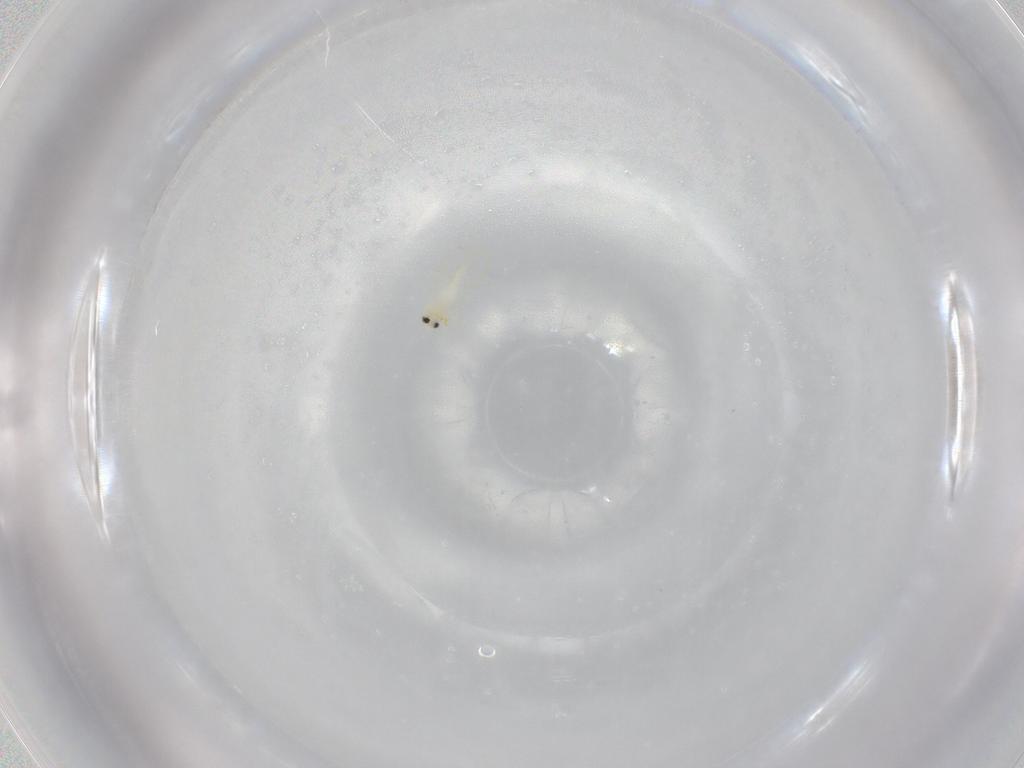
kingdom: Animalia
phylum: Arthropoda
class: Insecta
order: Hemiptera
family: Aleyrodidae
